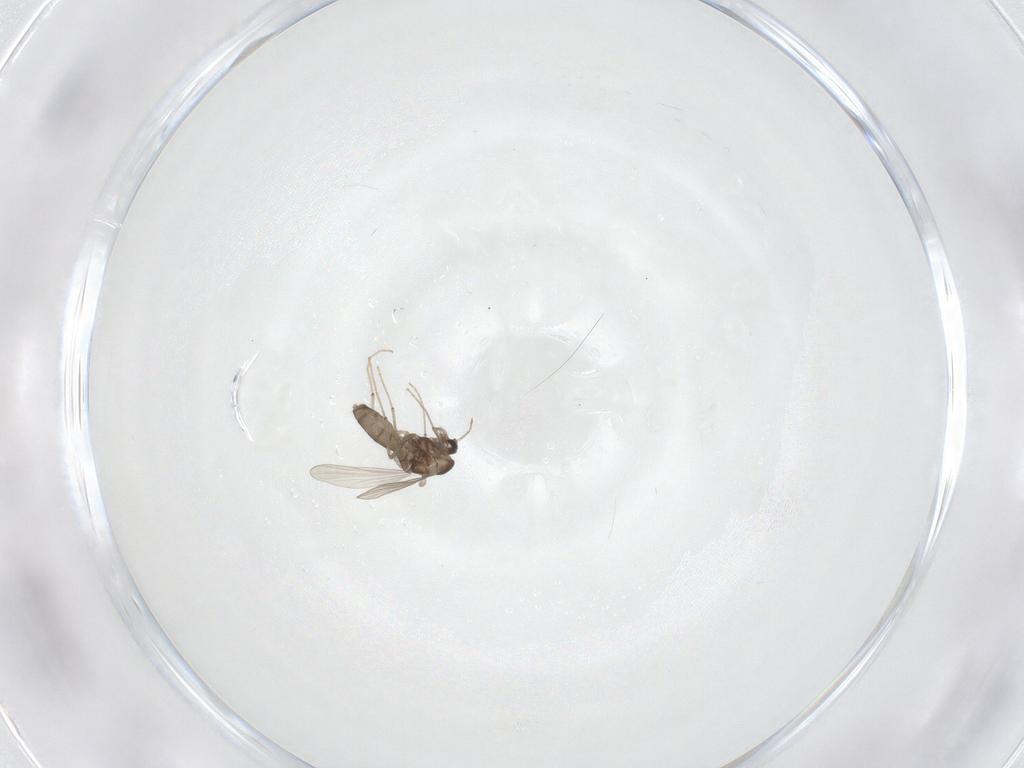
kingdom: Animalia
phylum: Arthropoda
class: Insecta
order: Diptera
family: Chironomidae
